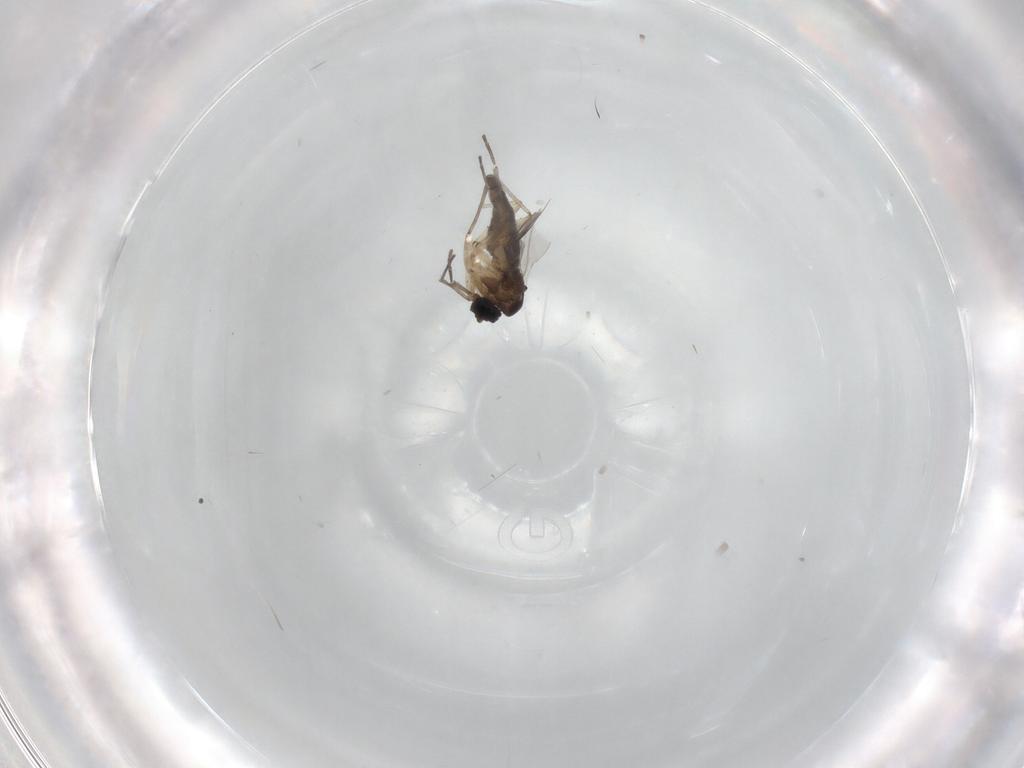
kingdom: Animalia
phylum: Arthropoda
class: Insecta
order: Diptera
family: Sciaridae
